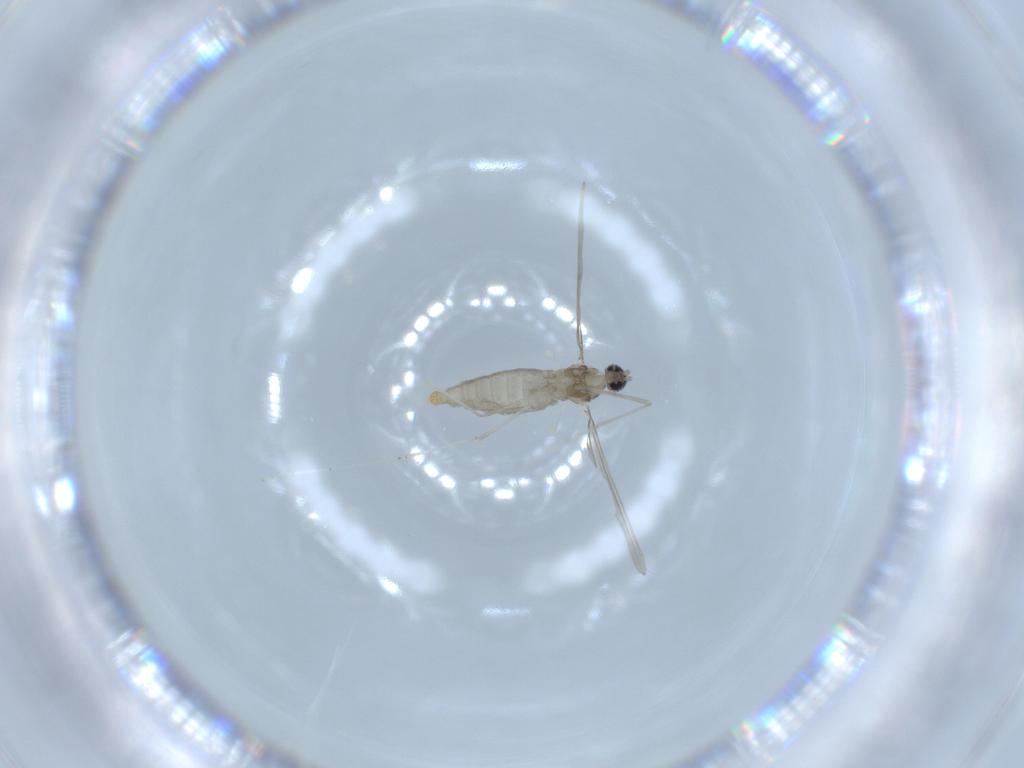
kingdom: Animalia
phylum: Arthropoda
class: Insecta
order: Diptera
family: Cecidomyiidae
